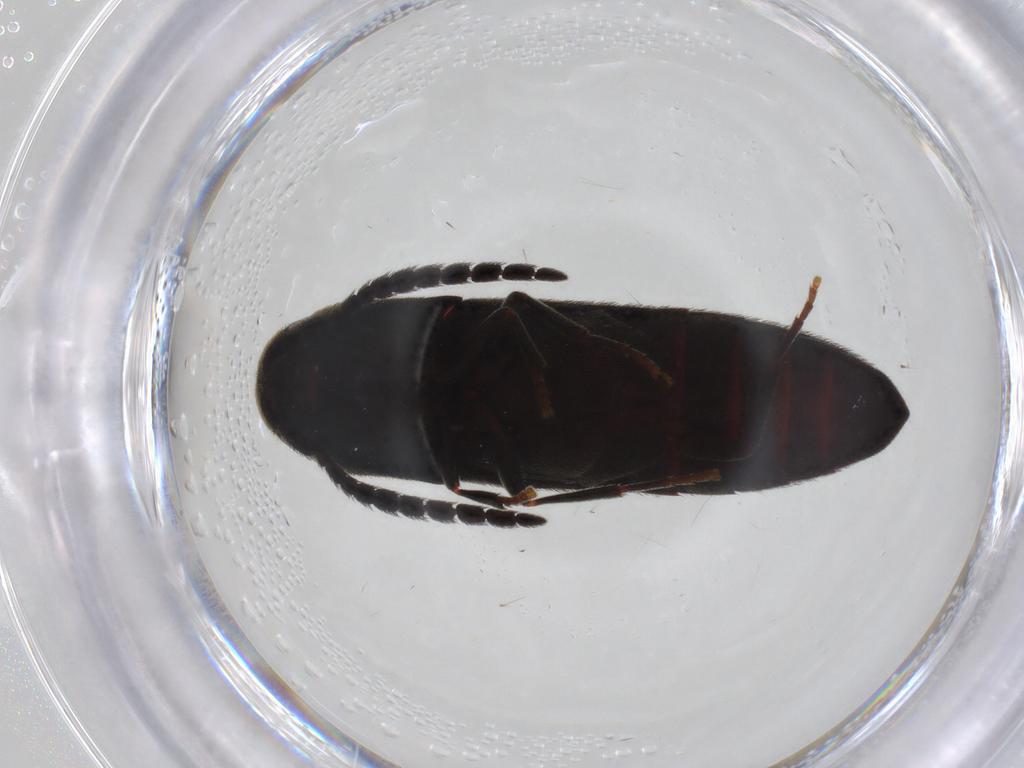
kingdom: Animalia
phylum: Arthropoda
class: Insecta
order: Coleoptera
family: Eucnemidae
